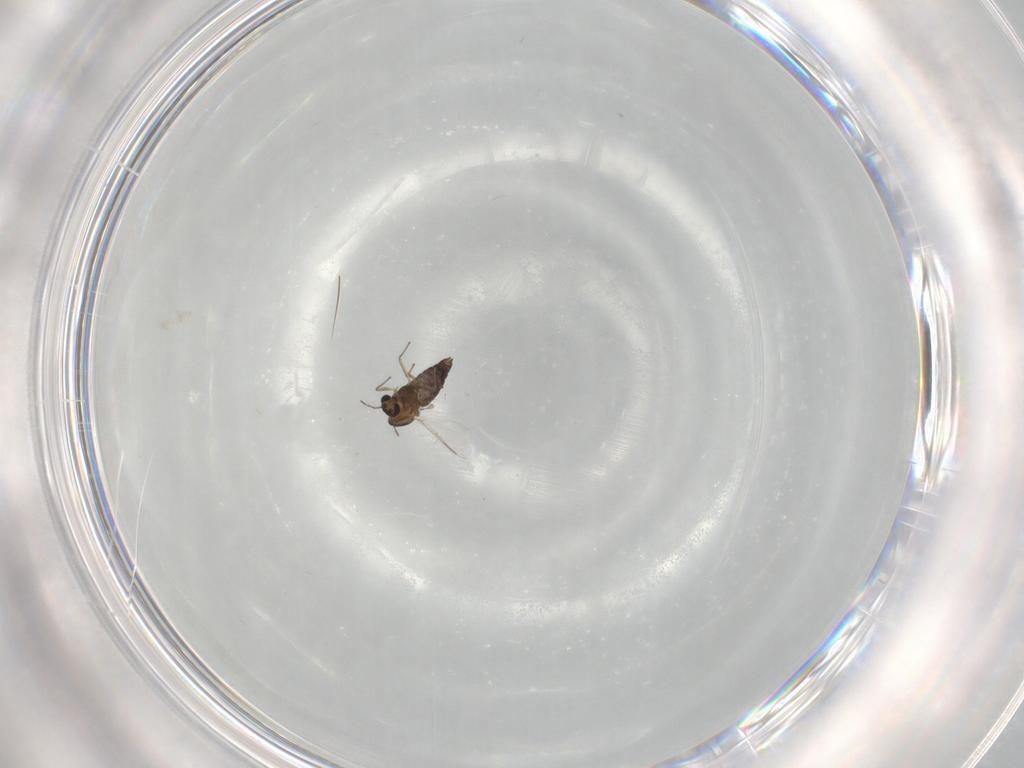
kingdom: Animalia
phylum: Arthropoda
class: Insecta
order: Diptera
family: Chironomidae
